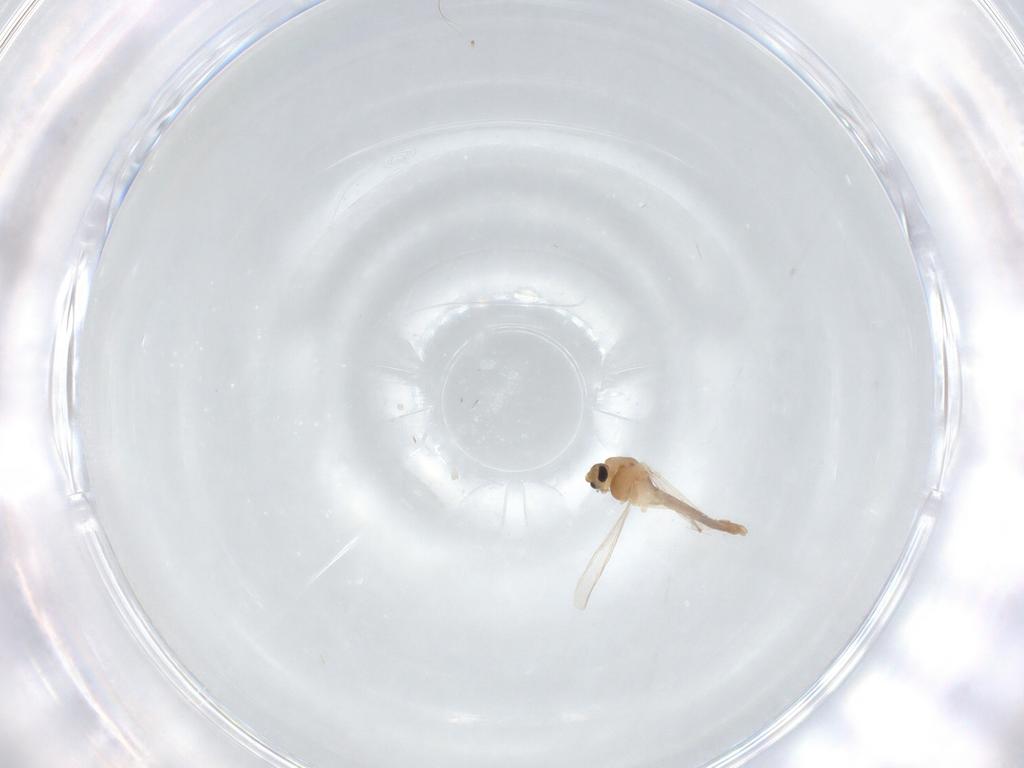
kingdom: Animalia
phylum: Arthropoda
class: Insecta
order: Diptera
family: Chironomidae
